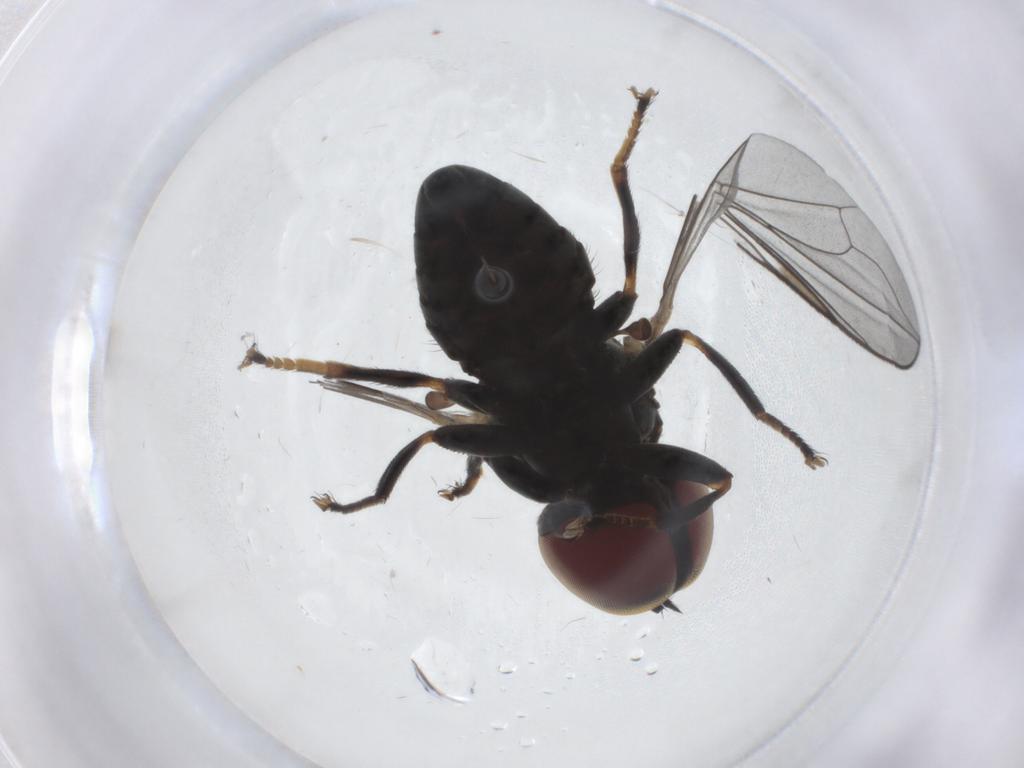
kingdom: Animalia
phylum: Arthropoda
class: Insecta
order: Diptera
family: Pipunculidae
